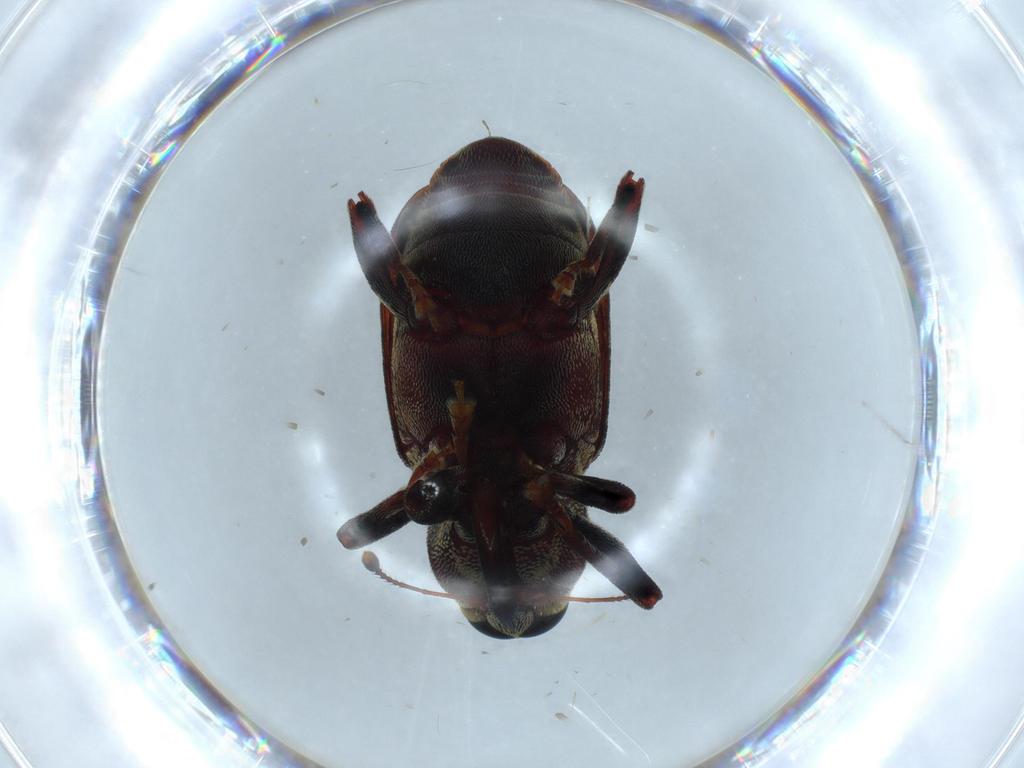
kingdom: Animalia
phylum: Arthropoda
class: Insecta
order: Coleoptera
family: Curculionidae
